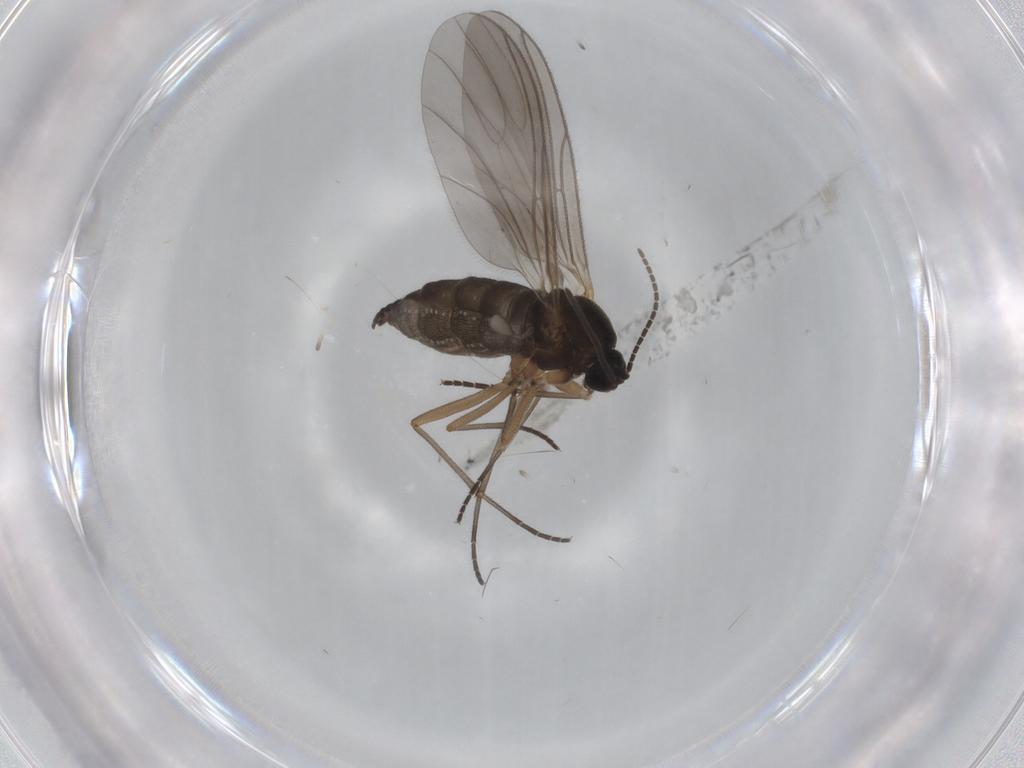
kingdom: Animalia
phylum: Arthropoda
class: Insecta
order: Diptera
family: Sciaridae
